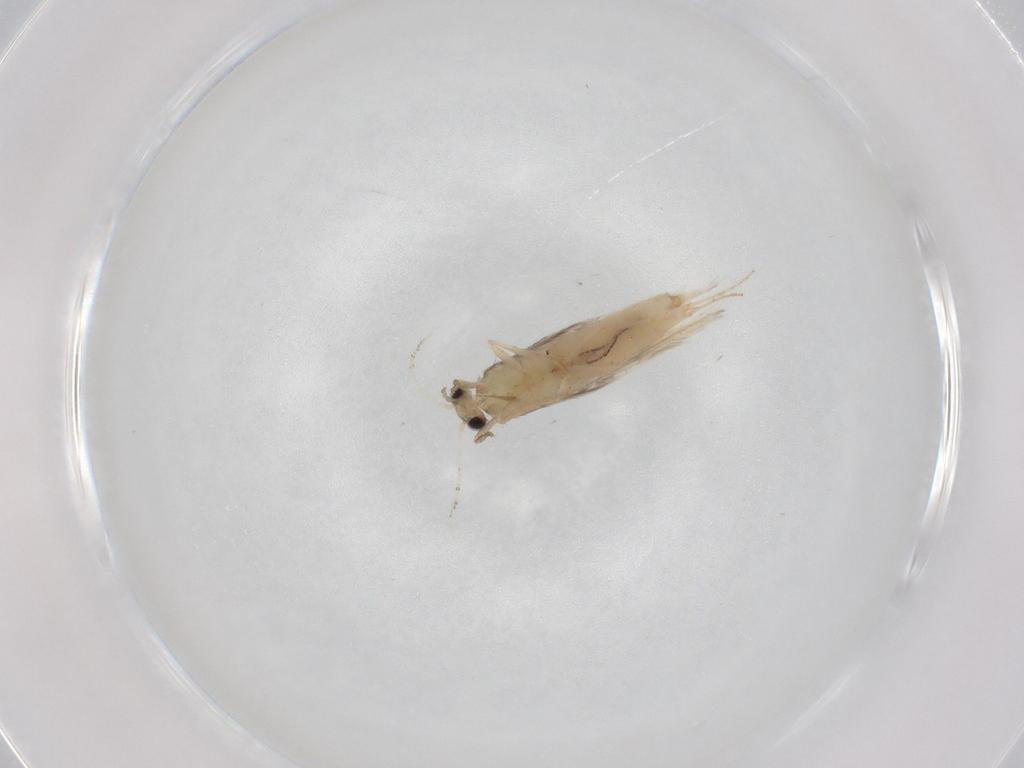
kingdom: Animalia
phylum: Arthropoda
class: Insecta
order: Trichoptera
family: Hydroptilidae
